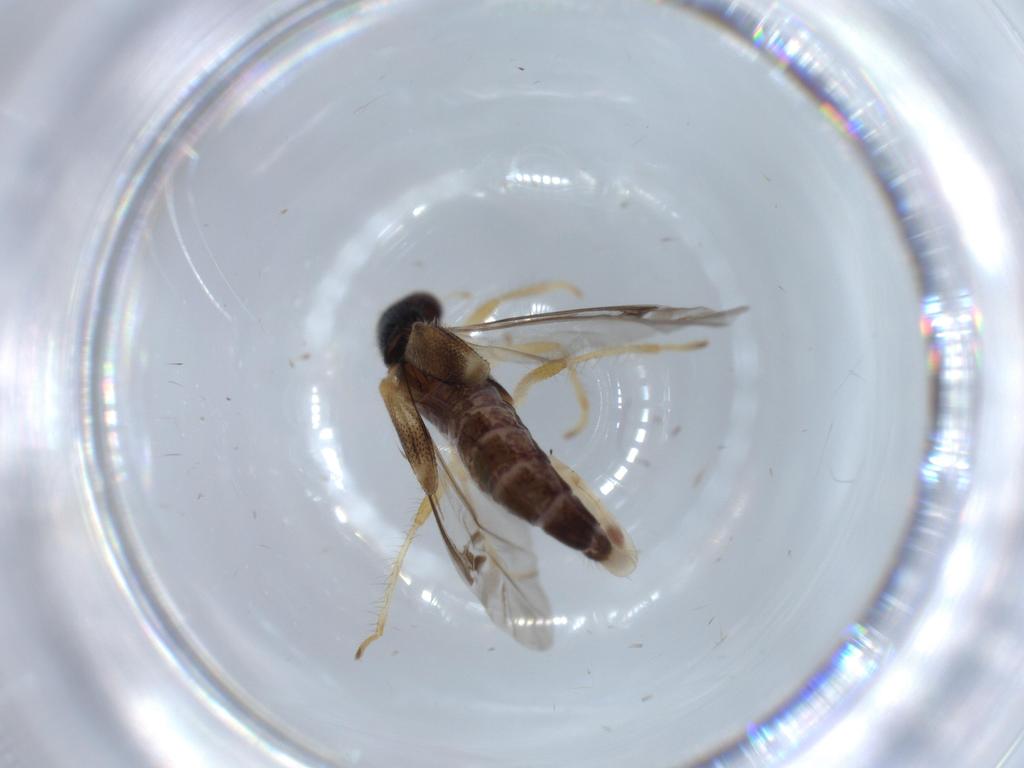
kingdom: Animalia
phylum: Arthropoda
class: Insecta
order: Coleoptera
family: Cleridae
